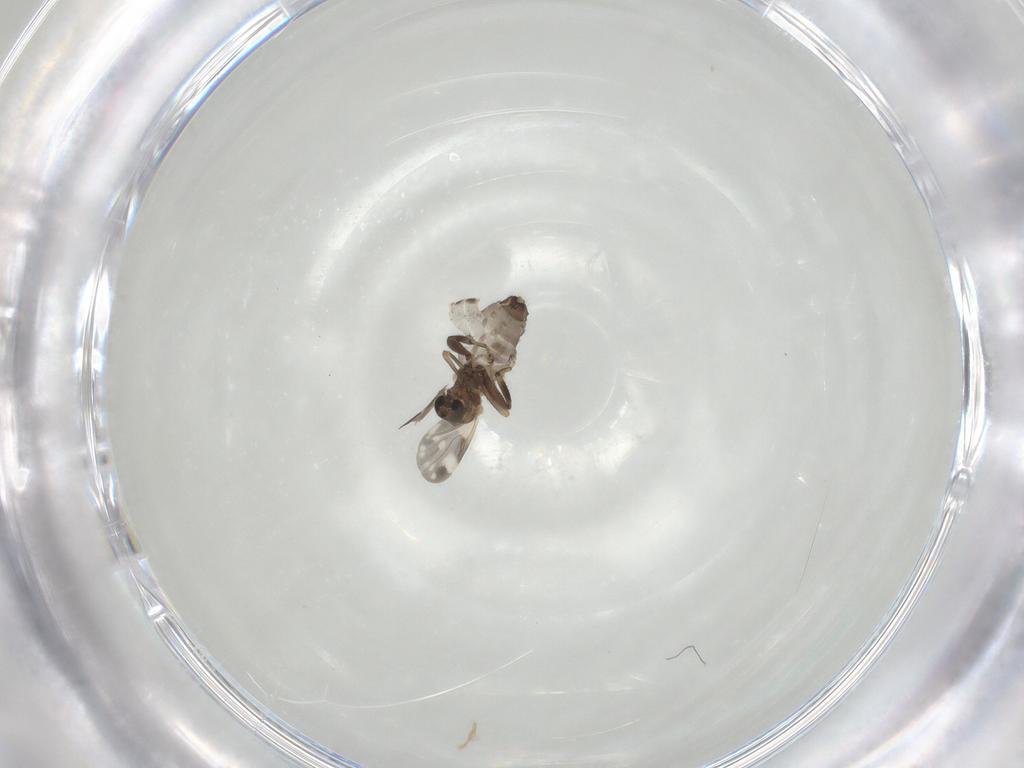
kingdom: Animalia
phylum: Arthropoda
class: Insecta
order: Diptera
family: Ceratopogonidae
